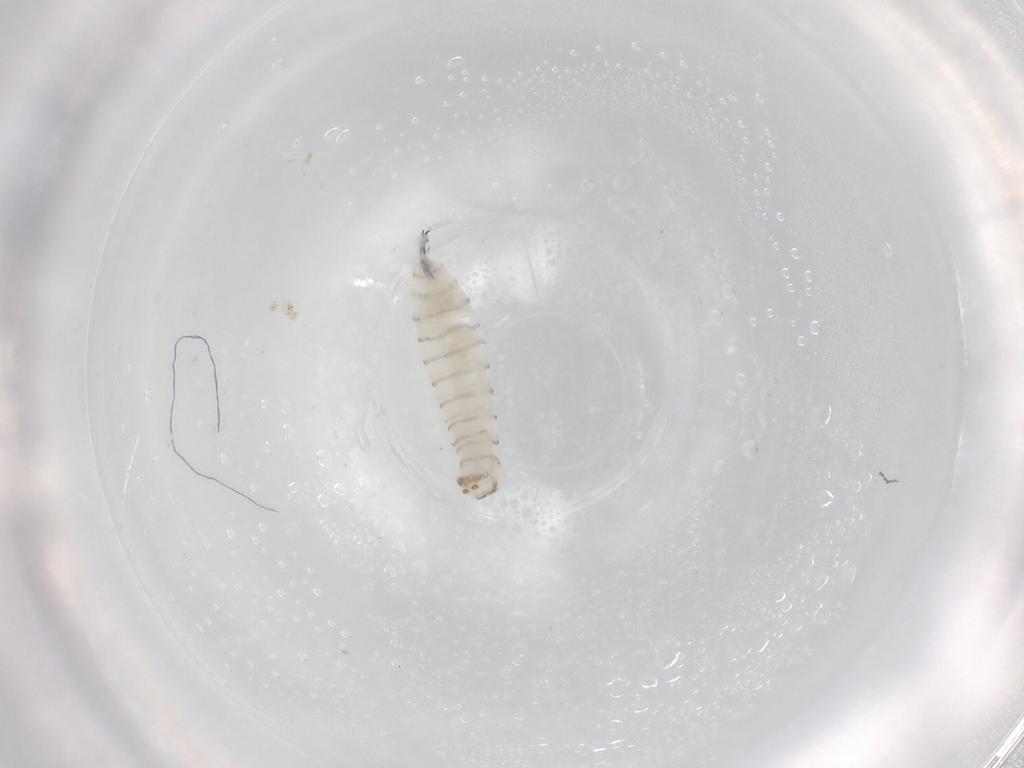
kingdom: Animalia
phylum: Arthropoda
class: Insecta
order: Diptera
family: Sarcophagidae
